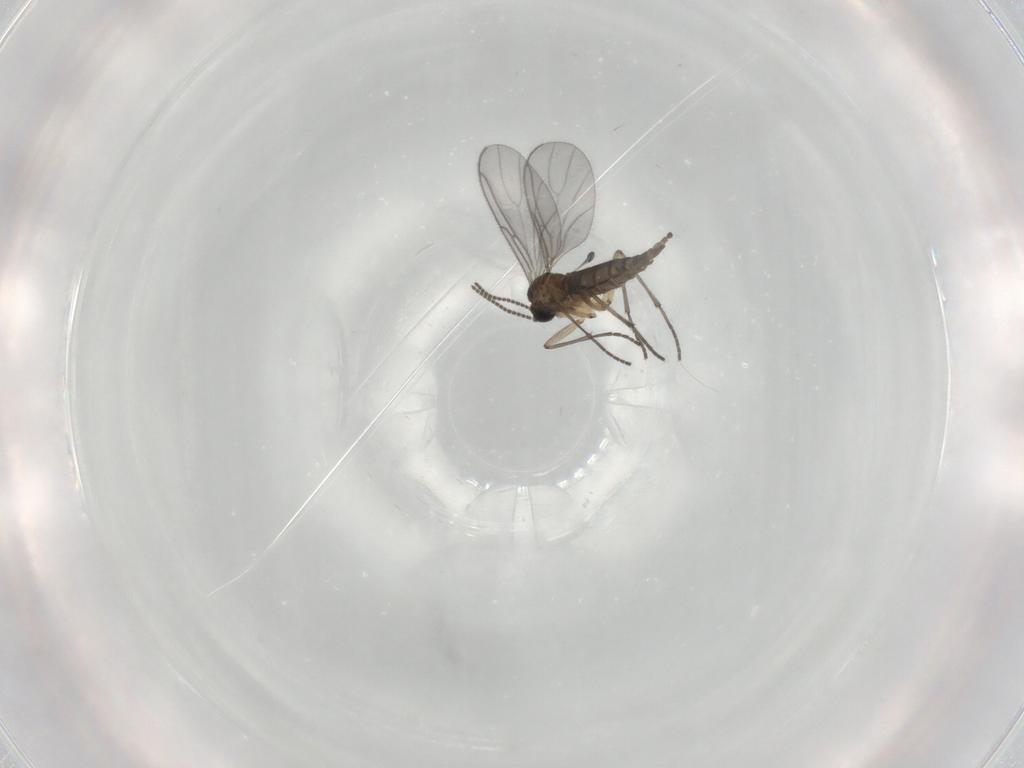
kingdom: Animalia
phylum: Arthropoda
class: Insecta
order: Diptera
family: Sciaridae
